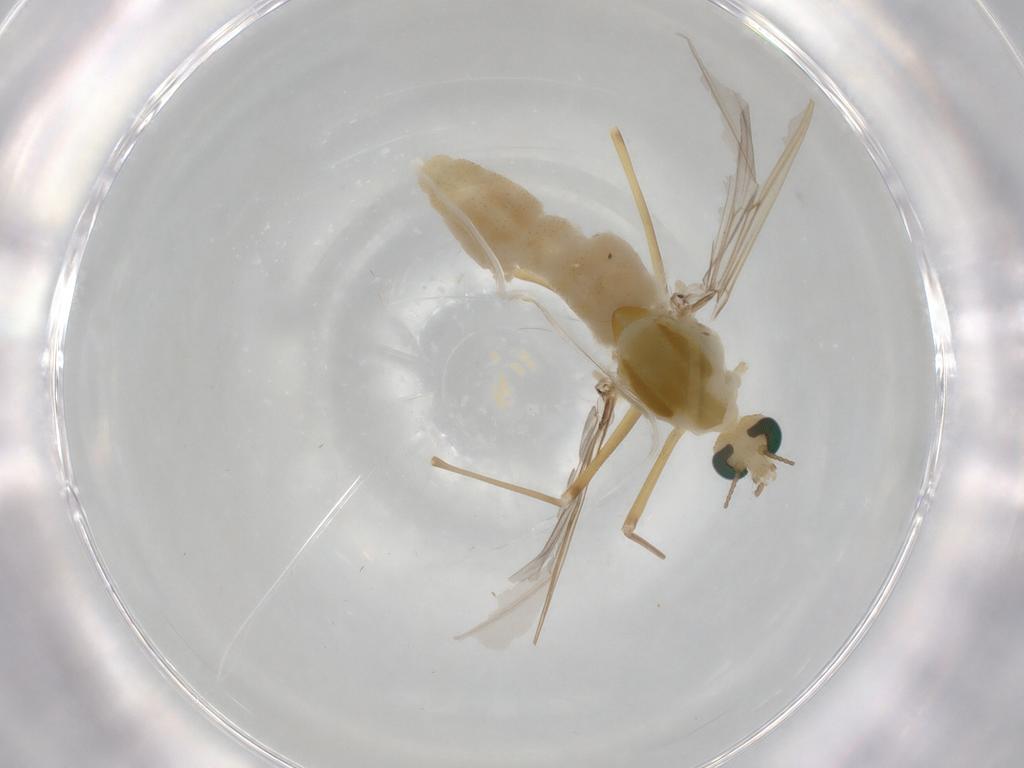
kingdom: Animalia
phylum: Arthropoda
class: Insecta
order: Diptera
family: Chironomidae
